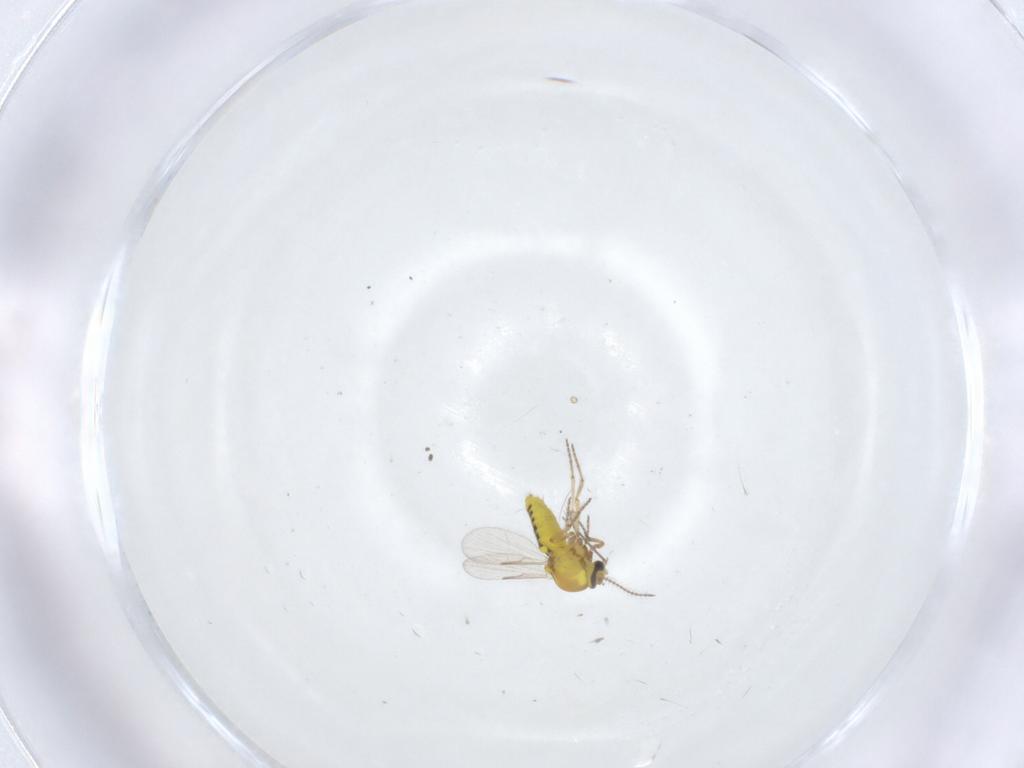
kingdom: Animalia
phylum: Arthropoda
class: Insecta
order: Diptera
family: Ceratopogonidae
